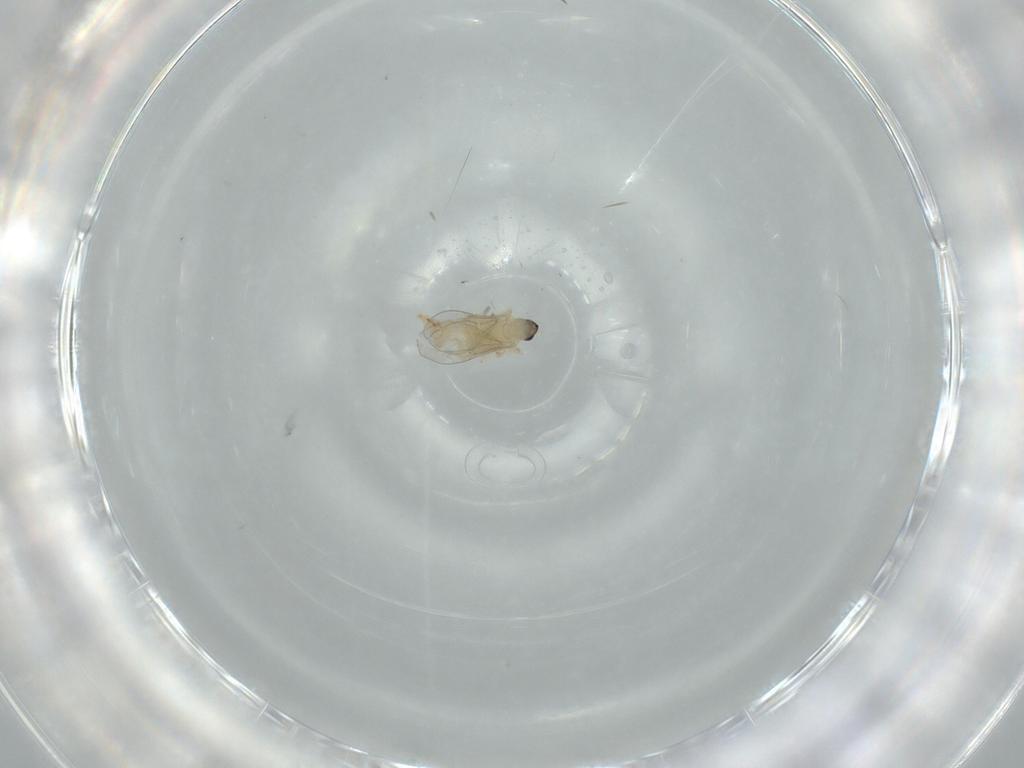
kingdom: Animalia
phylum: Arthropoda
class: Insecta
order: Diptera
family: Cecidomyiidae
